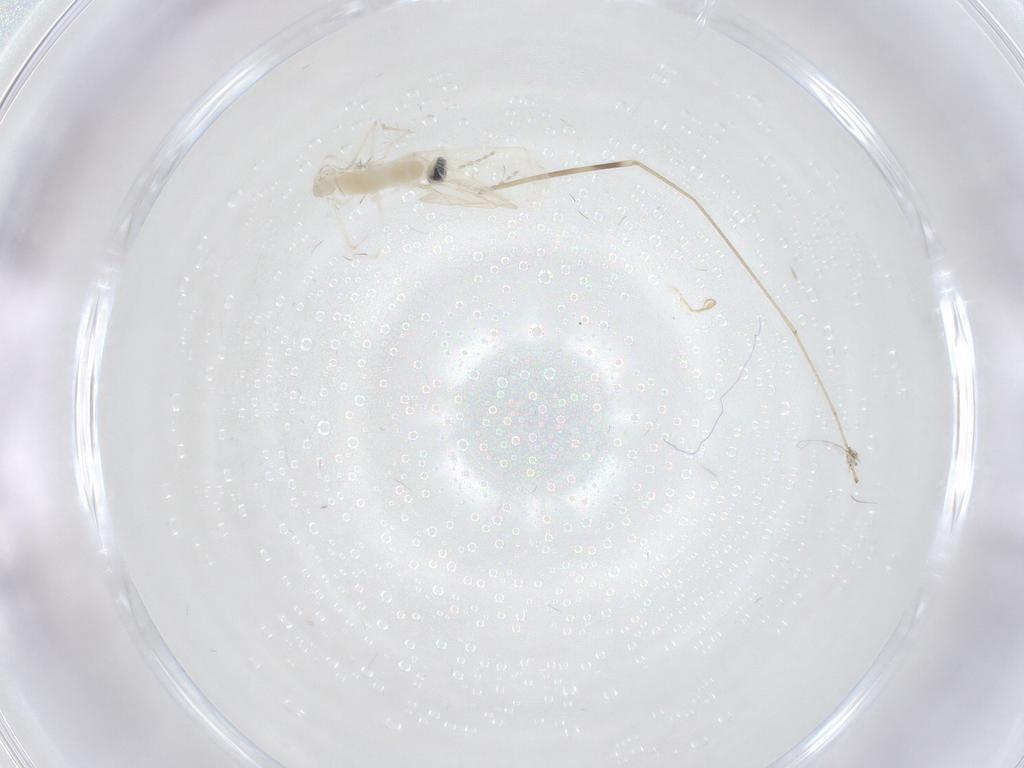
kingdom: Animalia
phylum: Arthropoda
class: Insecta
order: Diptera
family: Cecidomyiidae
